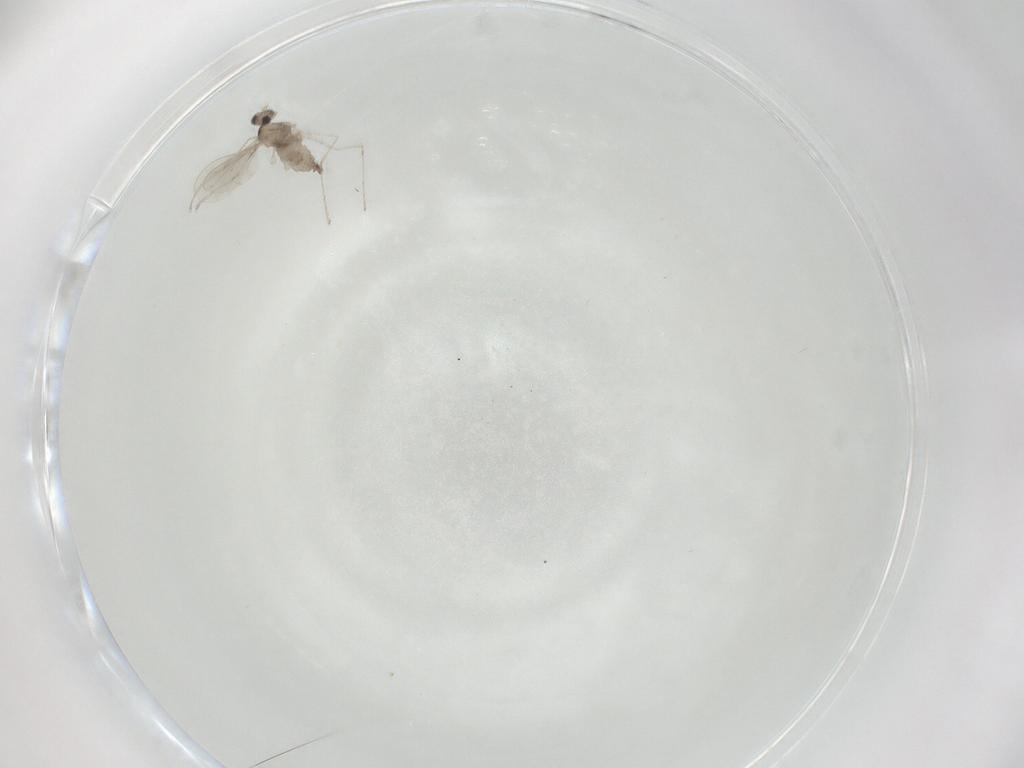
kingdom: Animalia
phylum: Arthropoda
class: Insecta
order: Diptera
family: Cecidomyiidae
